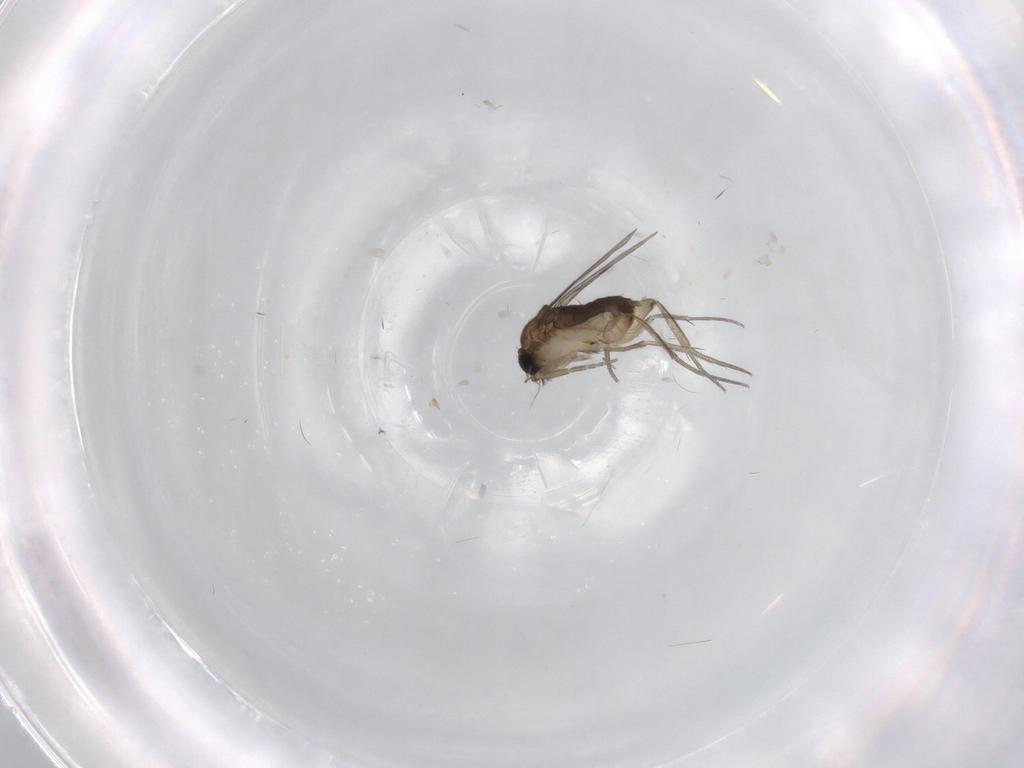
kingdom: Animalia
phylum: Arthropoda
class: Insecta
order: Diptera
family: Phoridae
